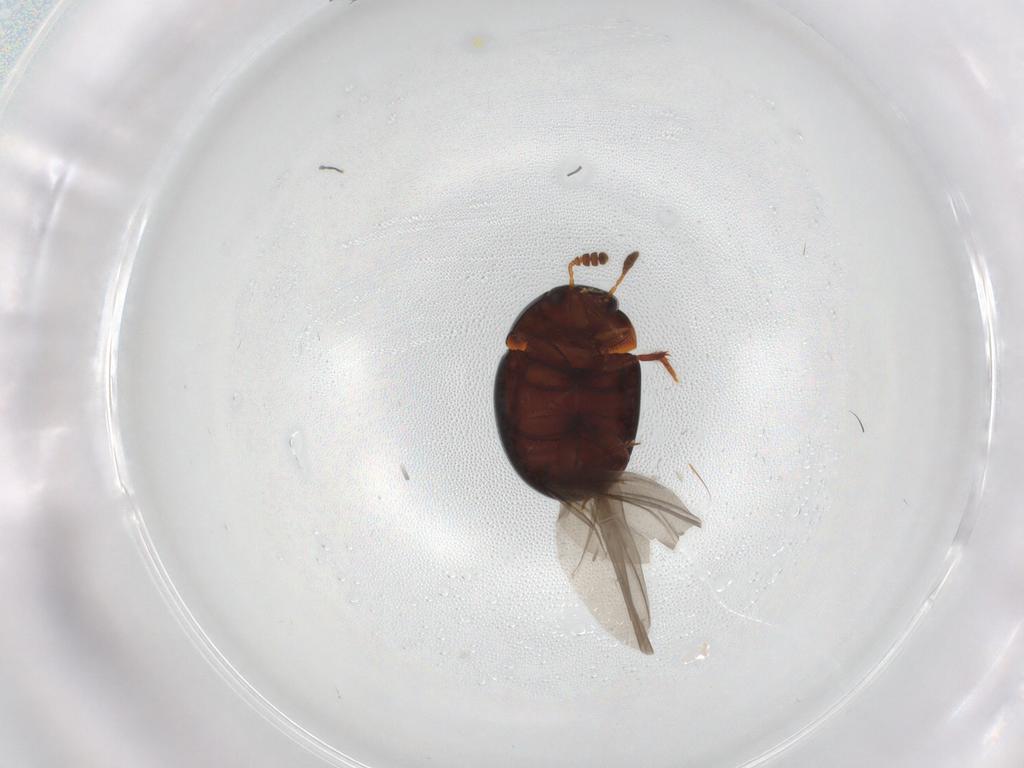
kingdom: Animalia
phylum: Arthropoda
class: Insecta
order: Coleoptera
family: Leiodidae
